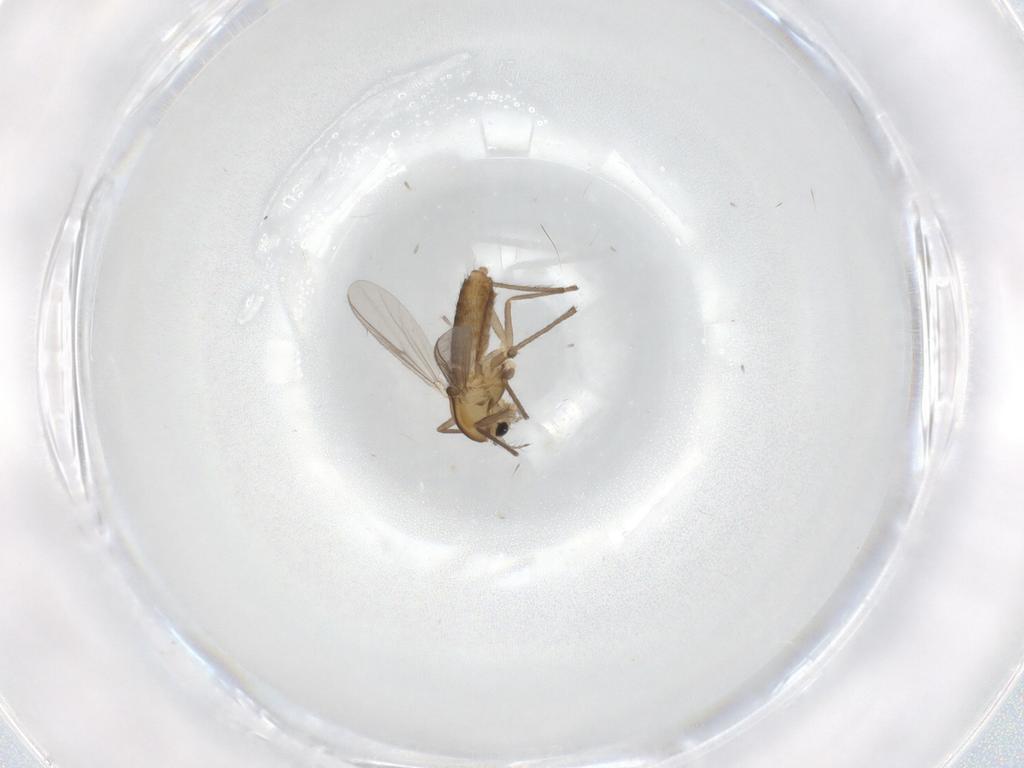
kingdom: Animalia
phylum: Arthropoda
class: Insecta
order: Diptera
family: Chironomidae
